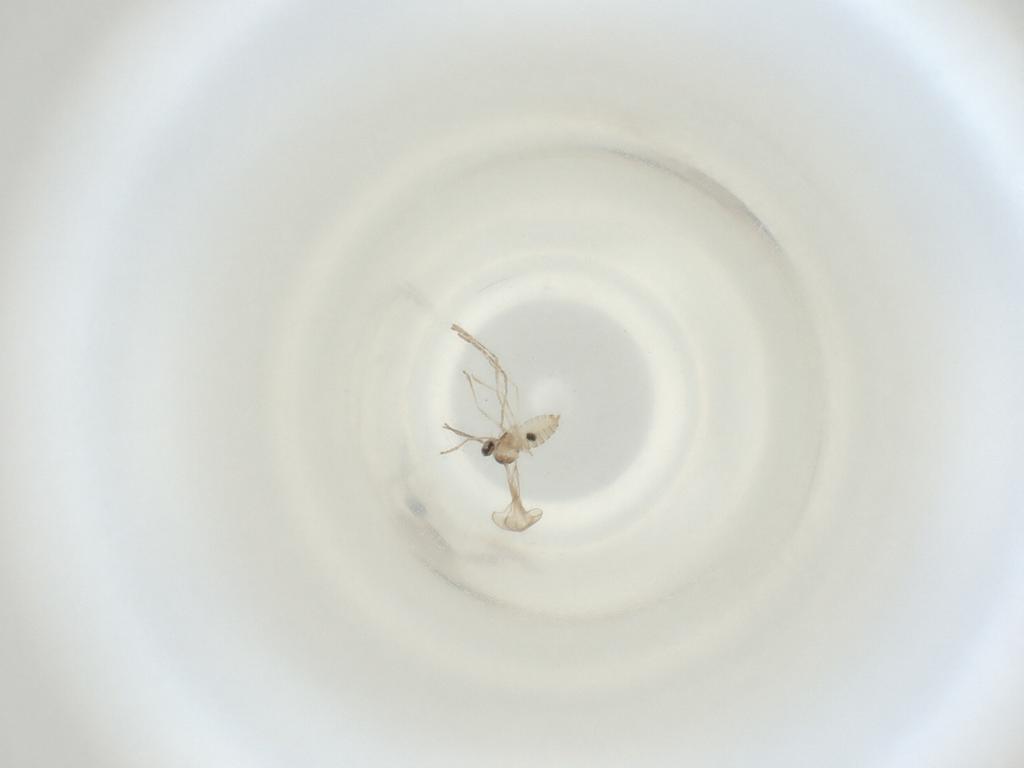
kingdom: Animalia
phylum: Arthropoda
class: Insecta
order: Diptera
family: Cecidomyiidae
